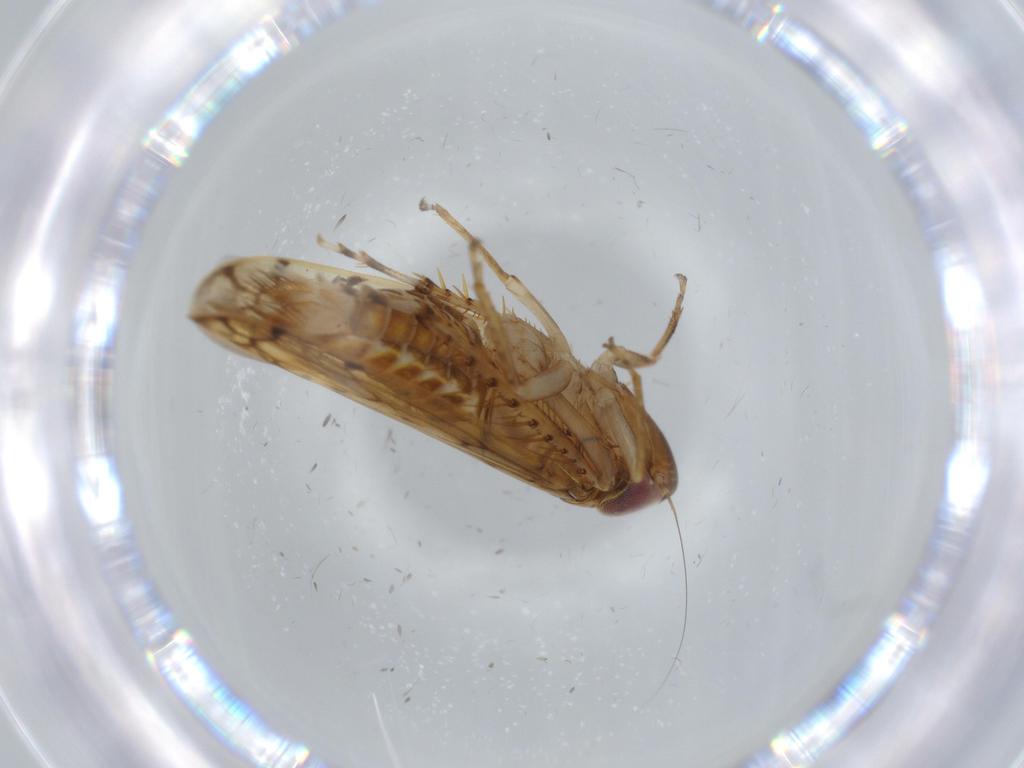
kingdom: Animalia
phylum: Arthropoda
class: Insecta
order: Hemiptera
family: Cicadellidae
